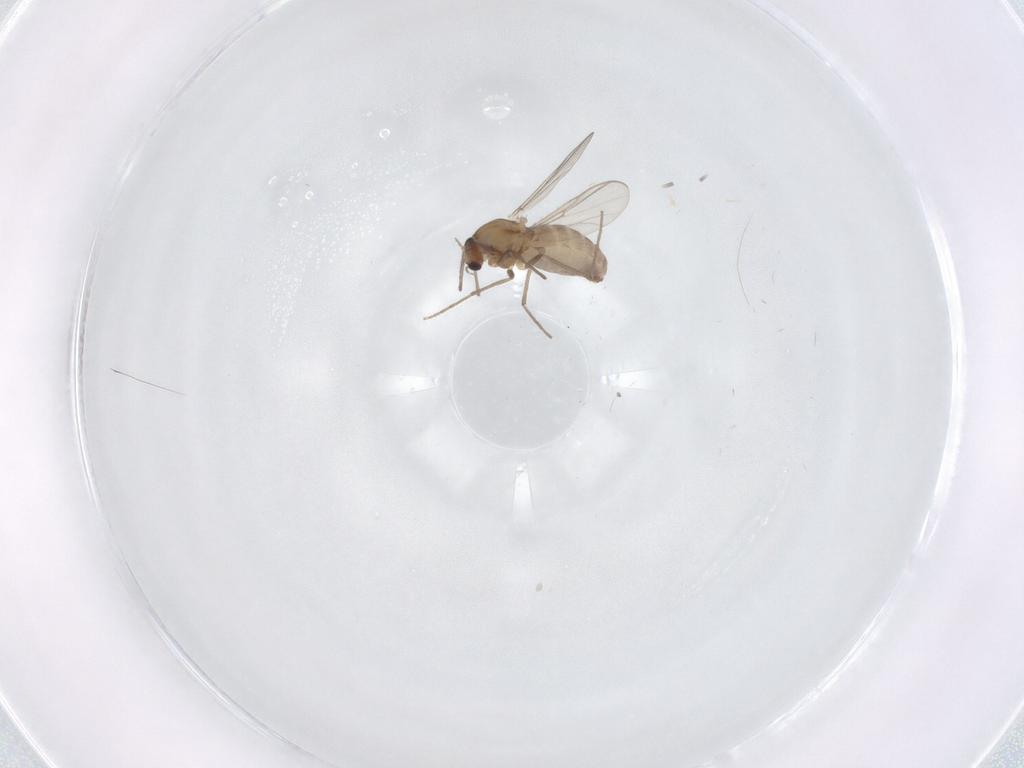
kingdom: Animalia
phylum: Arthropoda
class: Insecta
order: Diptera
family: Chironomidae
